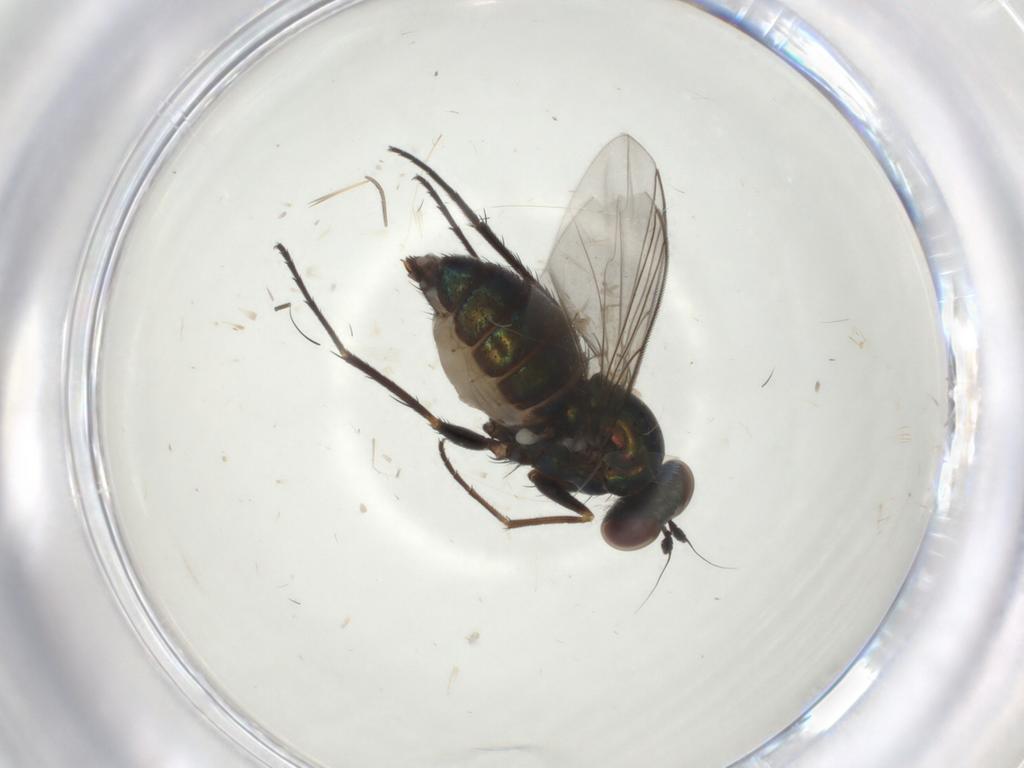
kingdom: Animalia
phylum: Arthropoda
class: Insecta
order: Diptera
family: Dolichopodidae
